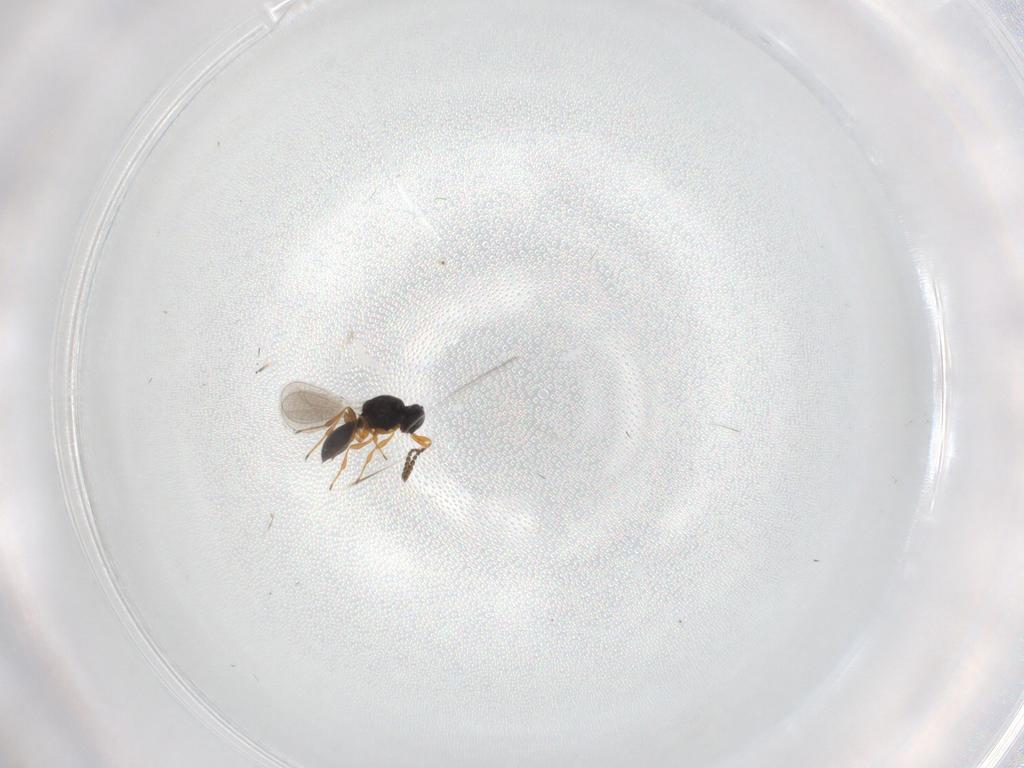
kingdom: Animalia
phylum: Arthropoda
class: Insecta
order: Hymenoptera
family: Platygastridae
